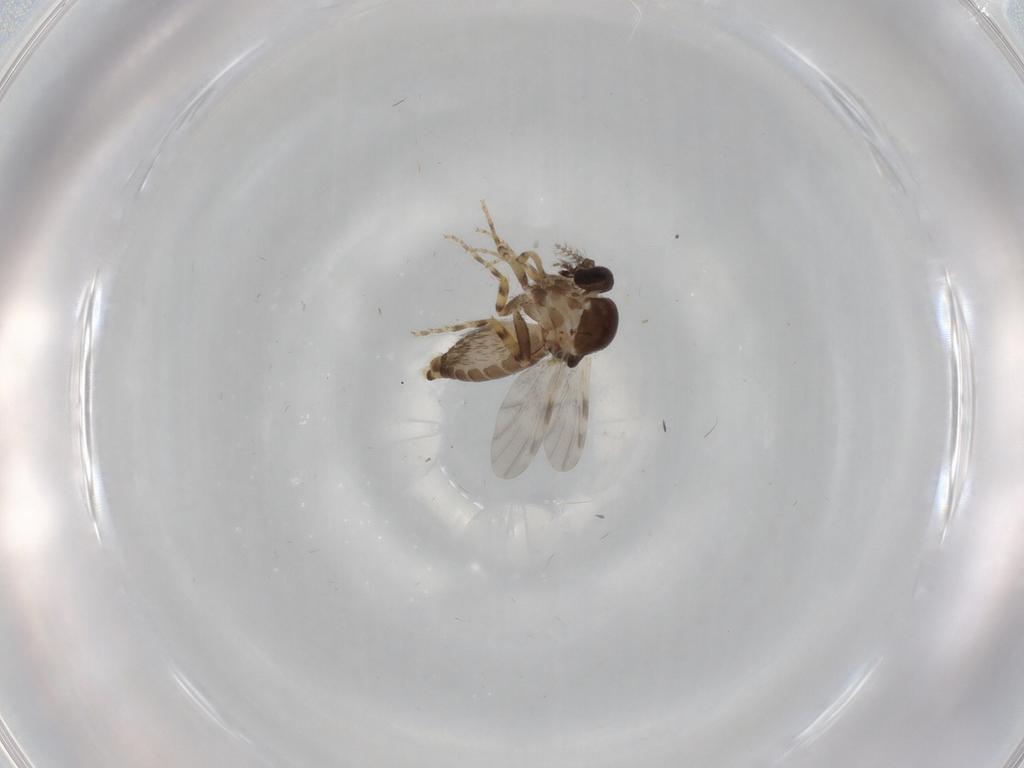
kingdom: Animalia
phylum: Arthropoda
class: Insecta
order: Diptera
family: Ceratopogonidae
